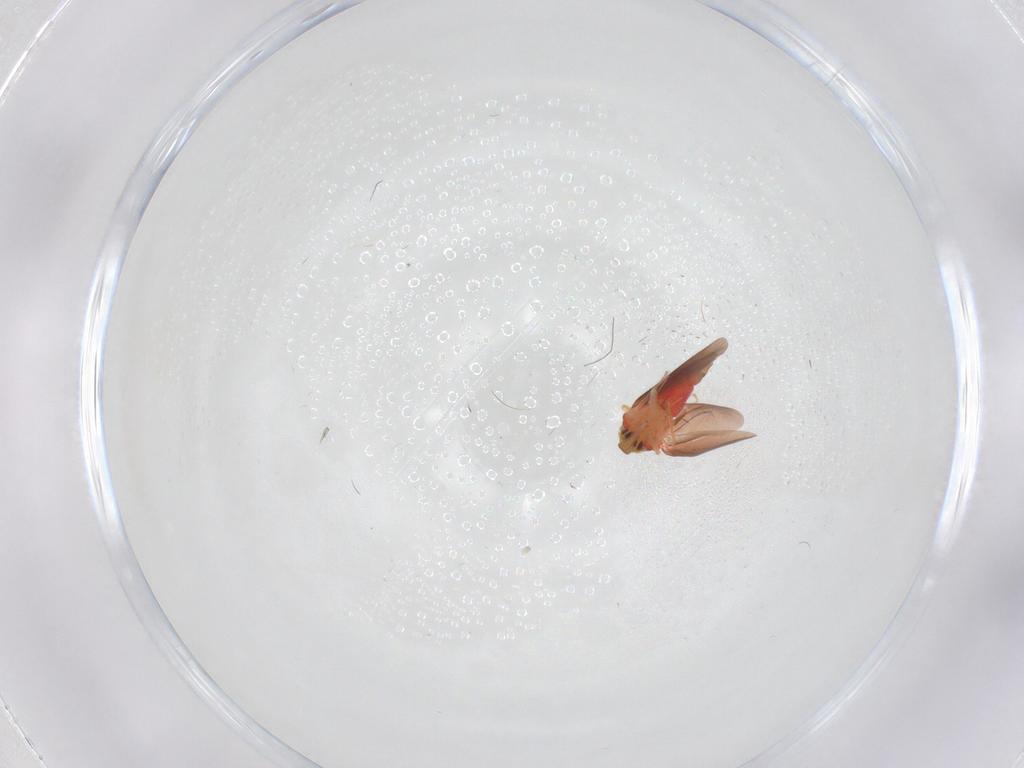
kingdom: Animalia
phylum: Arthropoda
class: Insecta
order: Hemiptera
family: Aleyrodidae
